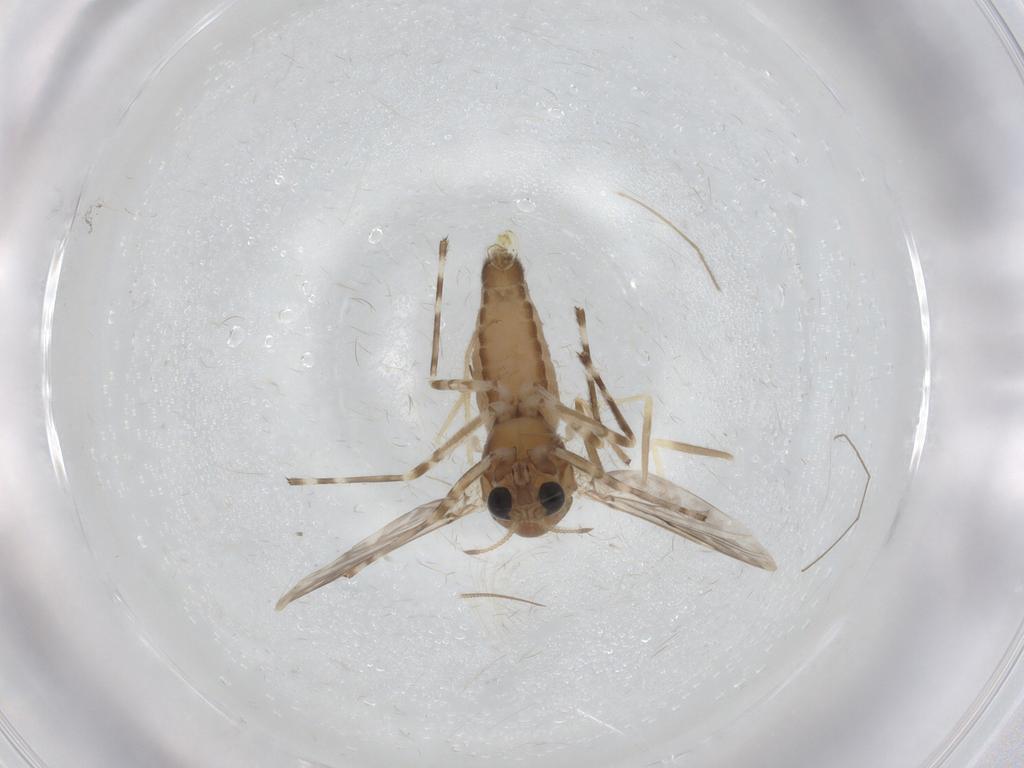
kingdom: Animalia
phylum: Arthropoda
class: Insecta
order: Diptera
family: Chironomidae
